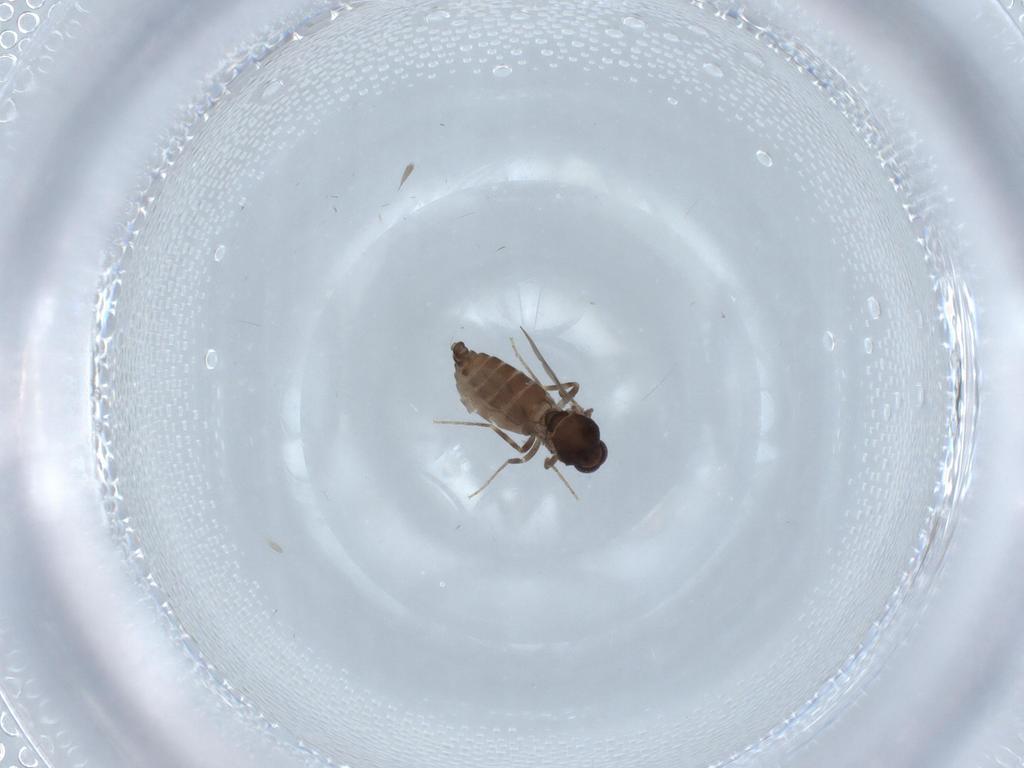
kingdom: Animalia
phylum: Arthropoda
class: Insecta
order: Diptera
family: Ceratopogonidae
